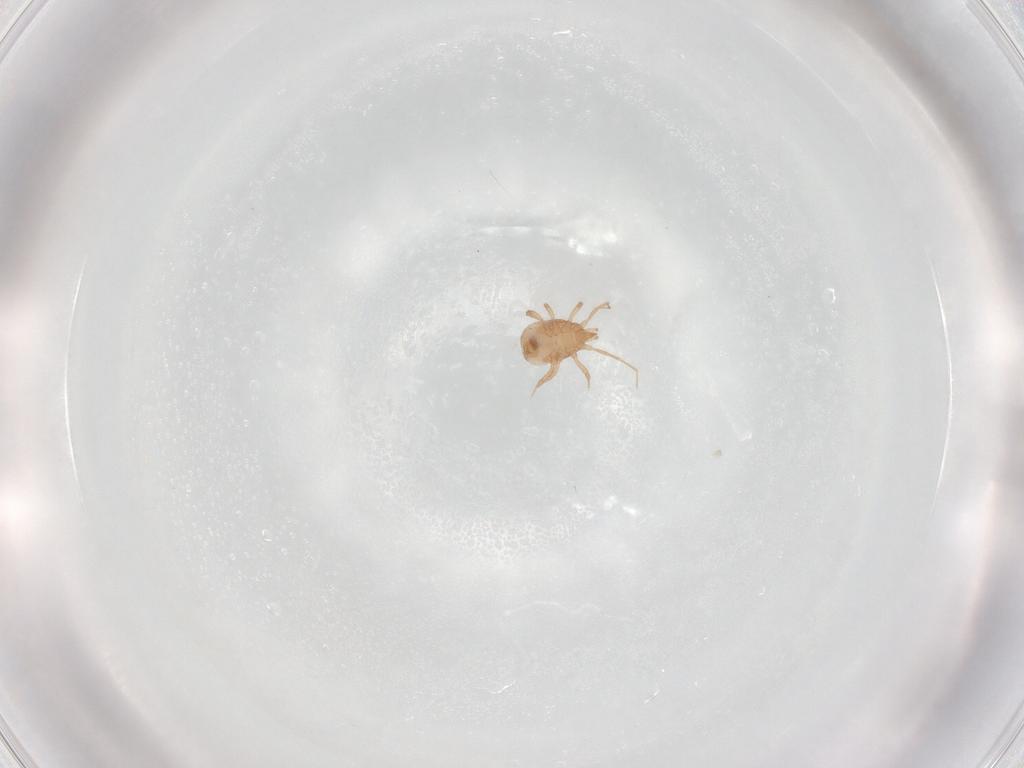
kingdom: Animalia
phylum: Arthropoda
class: Arachnida
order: Mesostigmata
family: Blattisociidae
